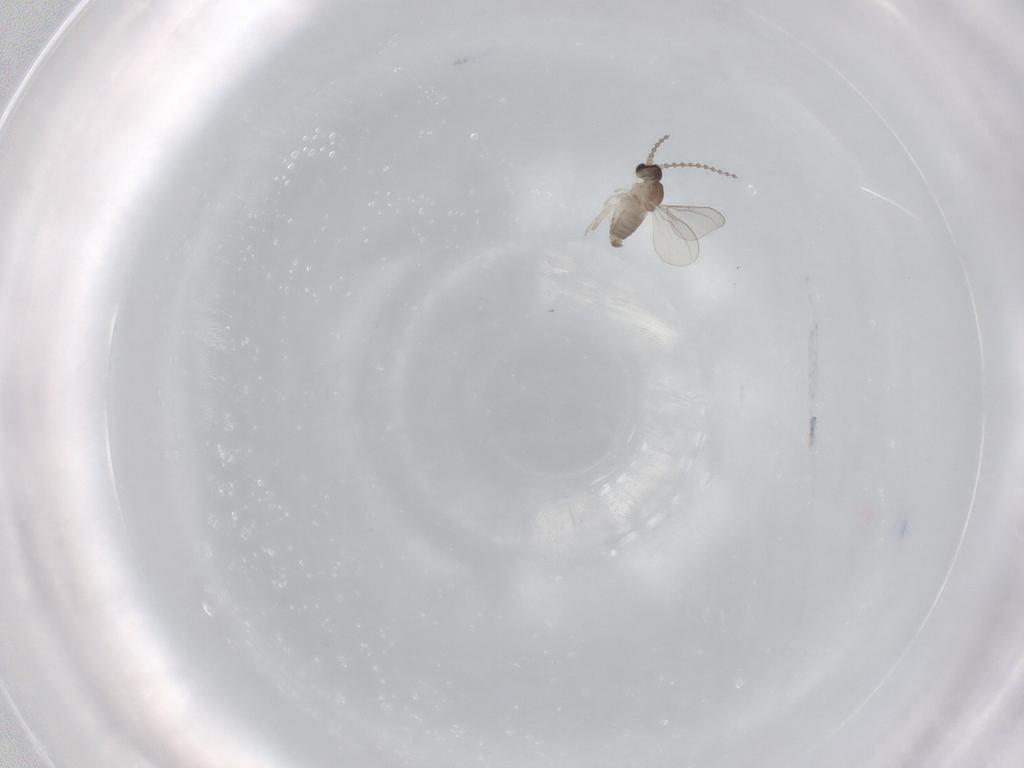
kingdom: Animalia
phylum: Arthropoda
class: Insecta
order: Diptera
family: Cecidomyiidae
